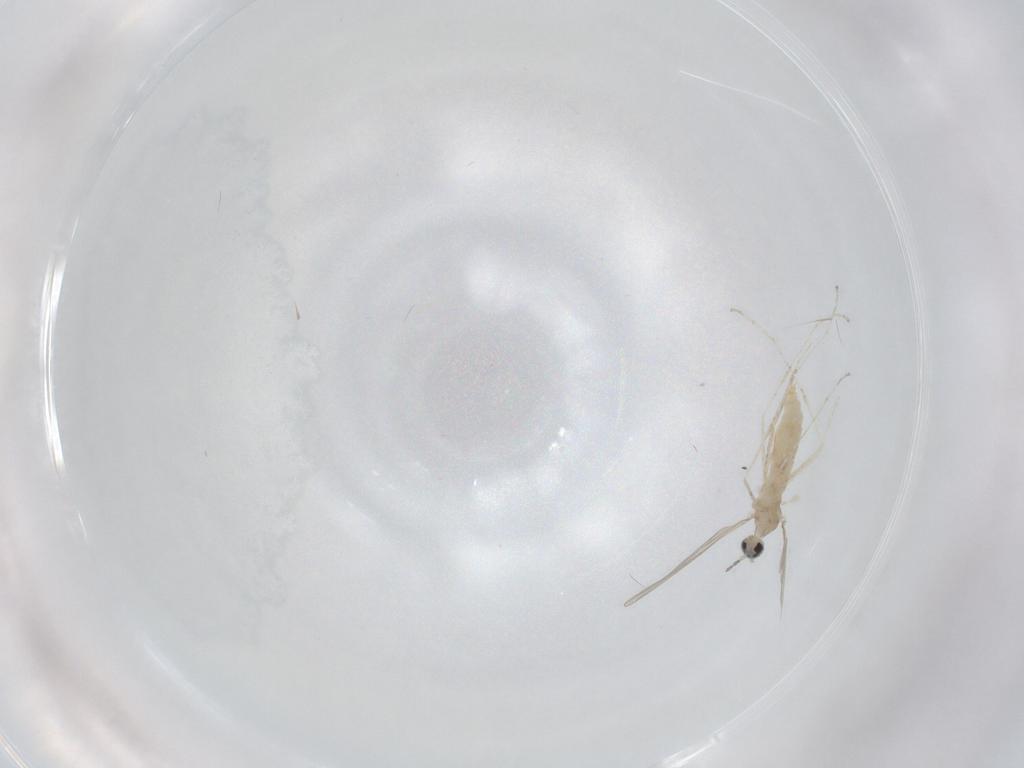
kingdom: Animalia
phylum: Arthropoda
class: Insecta
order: Diptera
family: Cecidomyiidae
